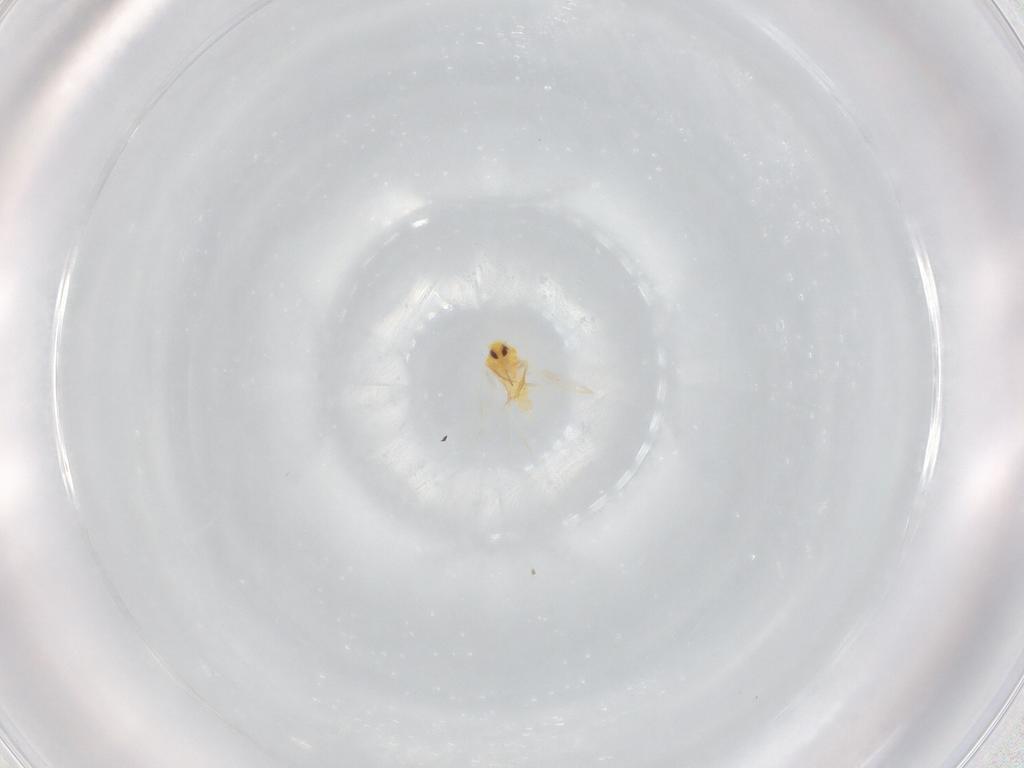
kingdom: Animalia
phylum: Arthropoda
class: Insecta
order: Hemiptera
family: Aleyrodidae
